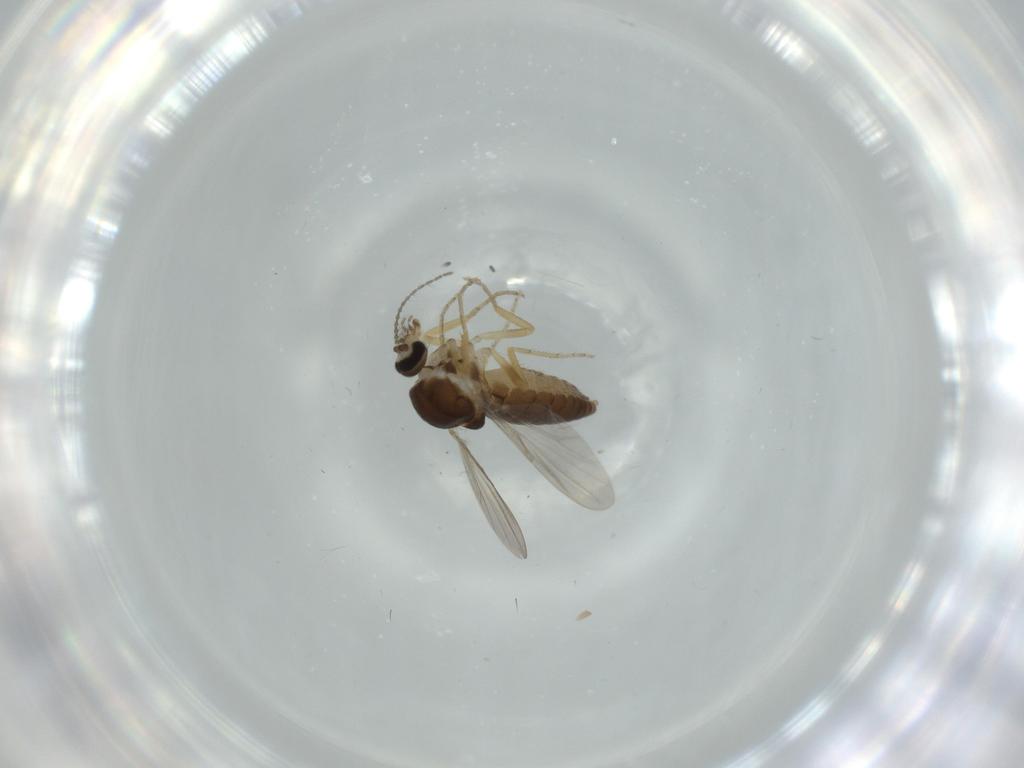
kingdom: Animalia
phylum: Arthropoda
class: Insecta
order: Diptera
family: Ceratopogonidae
